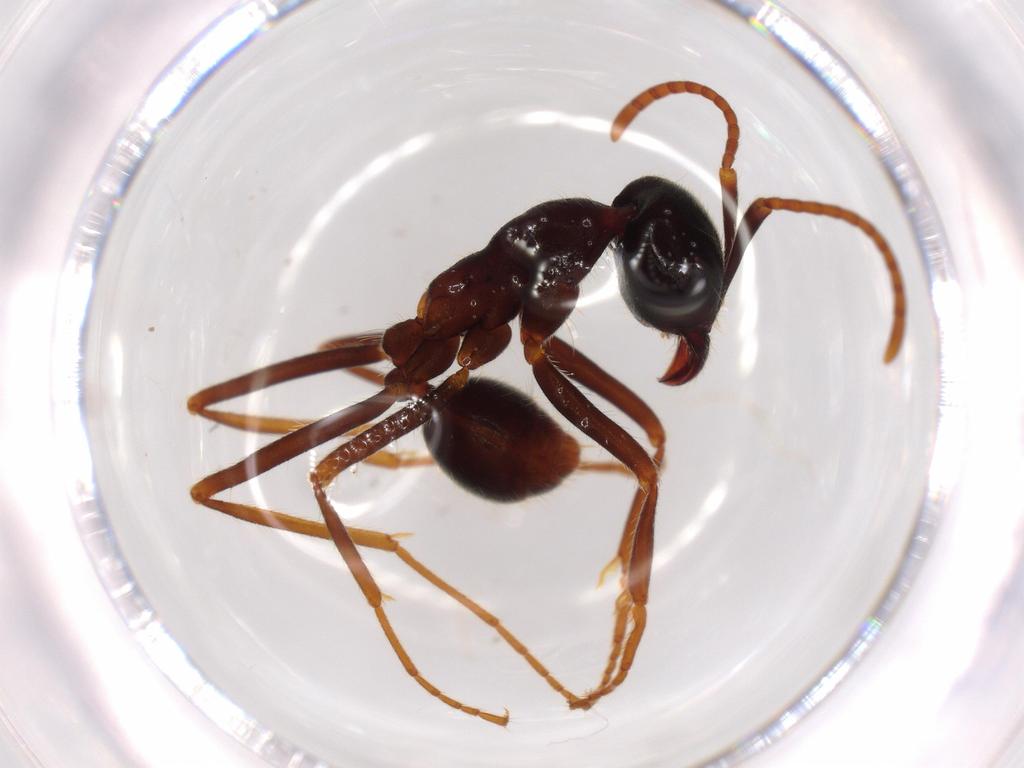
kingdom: Animalia
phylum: Arthropoda
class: Insecta
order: Hymenoptera
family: Formicidae
